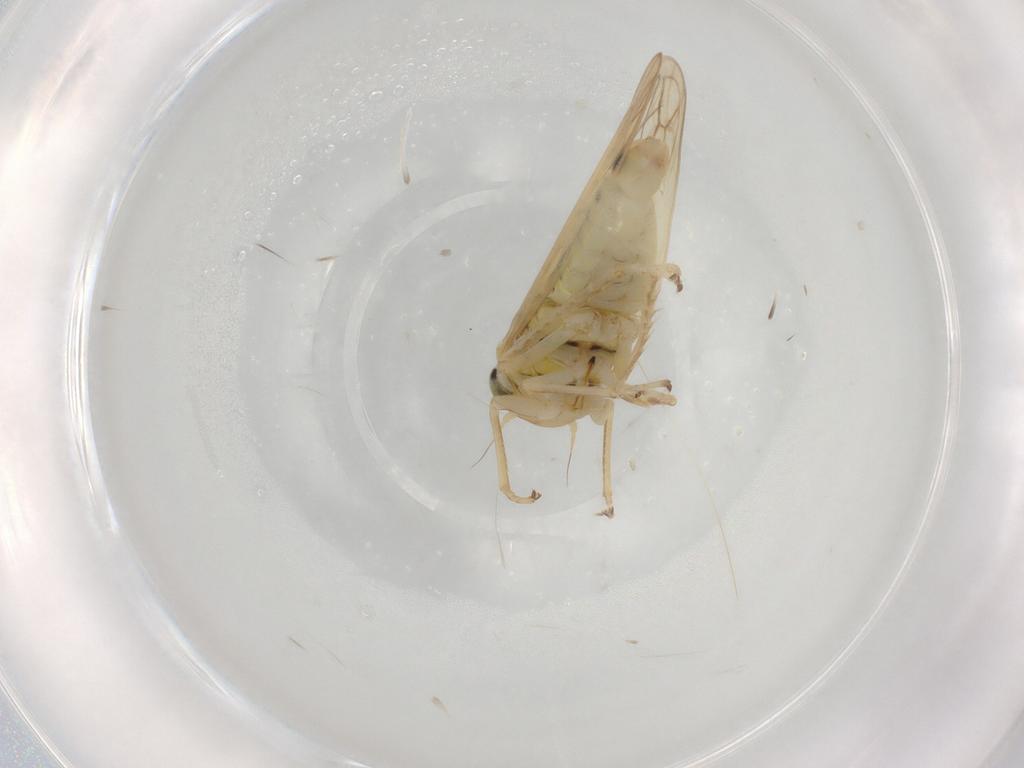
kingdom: Animalia
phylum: Arthropoda
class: Insecta
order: Hemiptera
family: Cicadellidae
